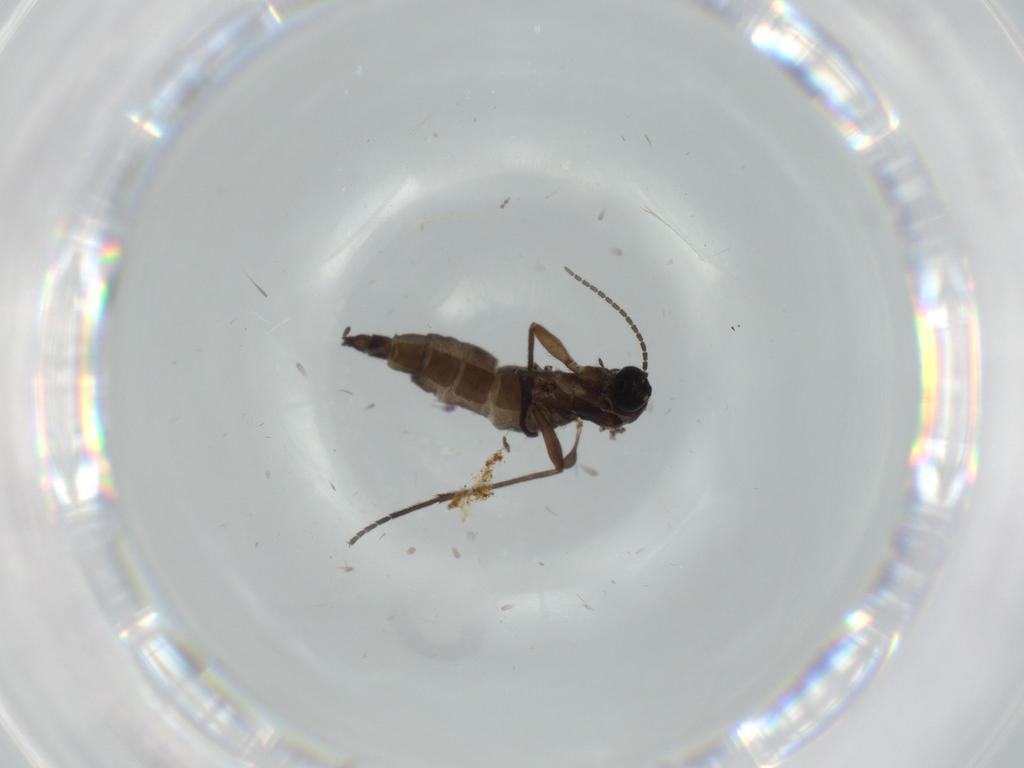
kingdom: Animalia
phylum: Arthropoda
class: Insecta
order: Diptera
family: Sciaridae
